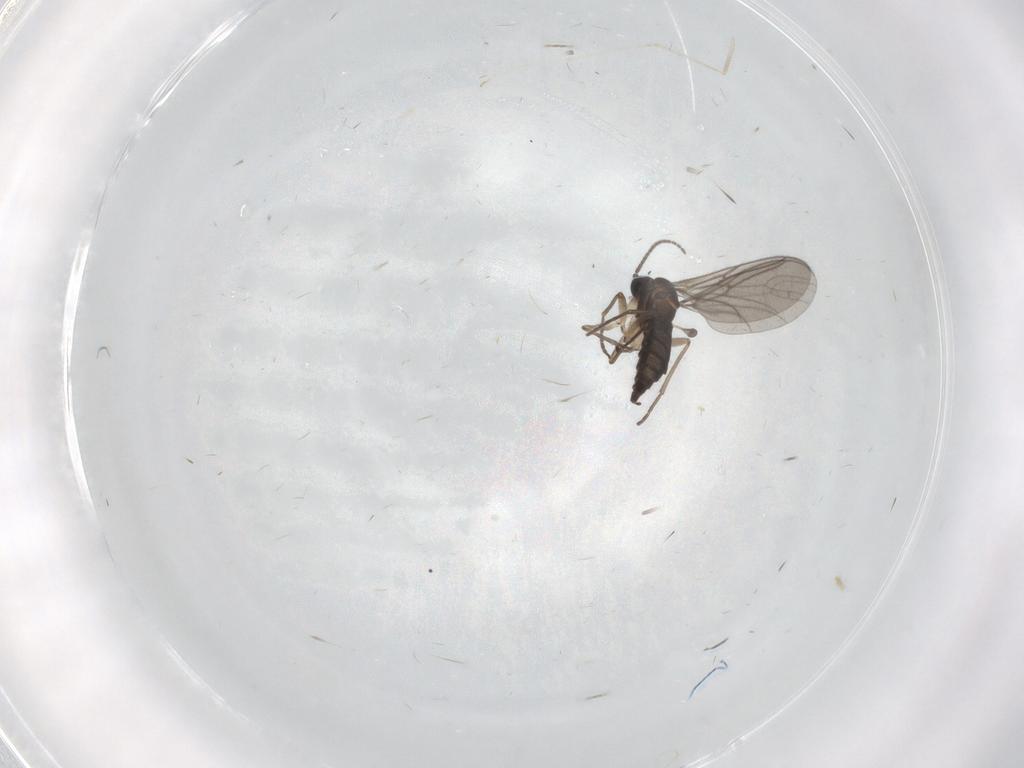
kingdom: Animalia
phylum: Arthropoda
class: Insecta
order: Diptera
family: Sciaridae
